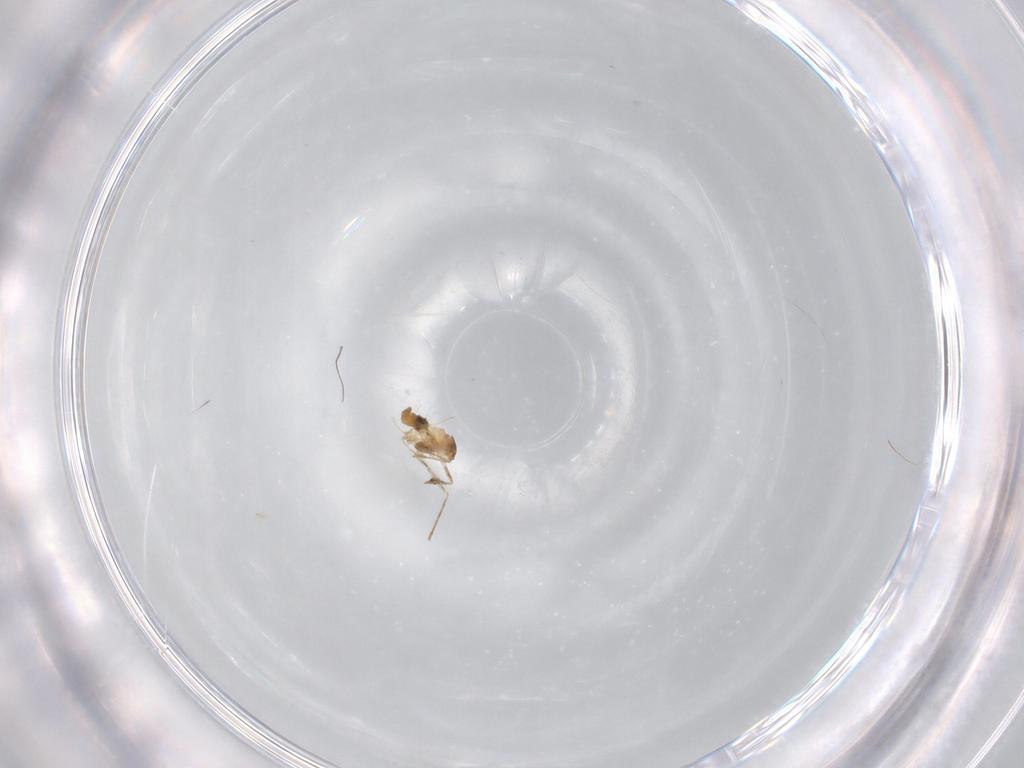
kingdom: Animalia
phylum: Arthropoda
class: Insecta
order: Diptera
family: Cecidomyiidae
